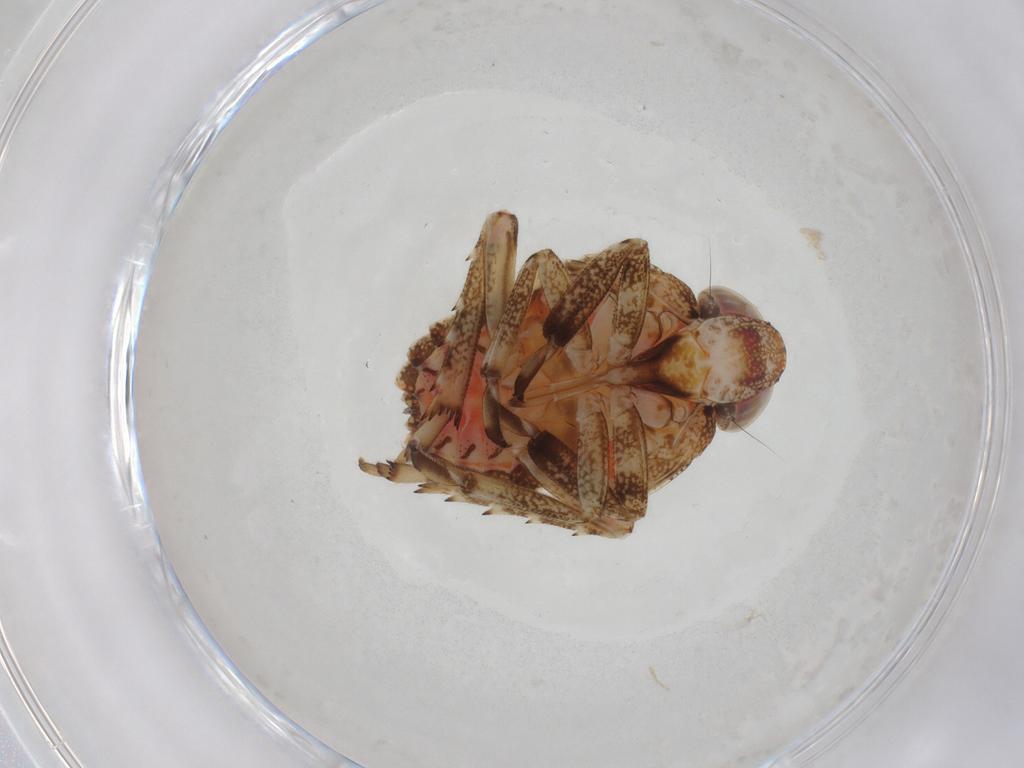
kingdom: Animalia
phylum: Arthropoda
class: Insecta
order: Hemiptera
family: Issidae
